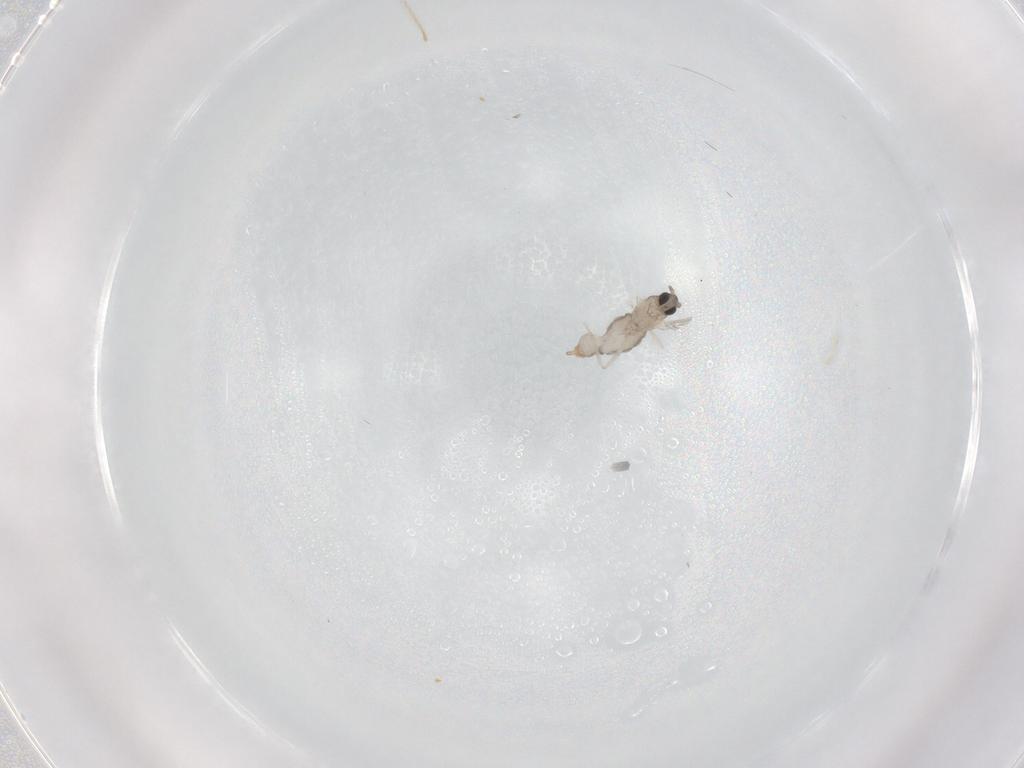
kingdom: Animalia
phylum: Arthropoda
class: Insecta
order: Diptera
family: Cecidomyiidae
